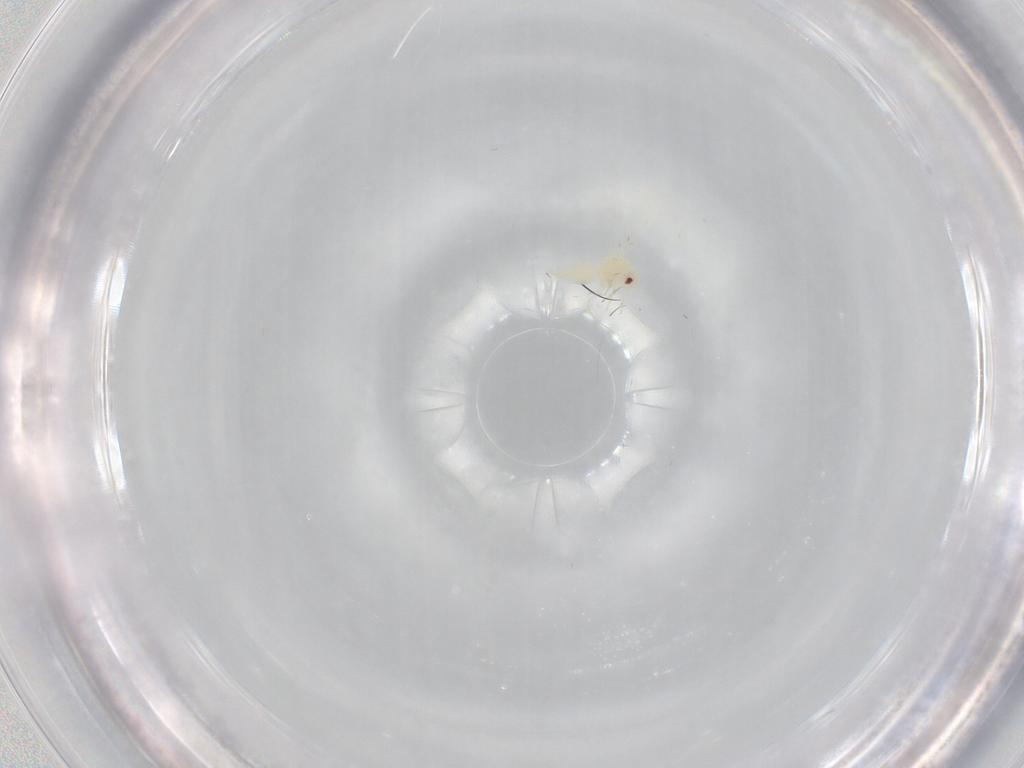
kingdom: Animalia
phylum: Arthropoda
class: Insecta
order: Hemiptera
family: Aleyrodidae
